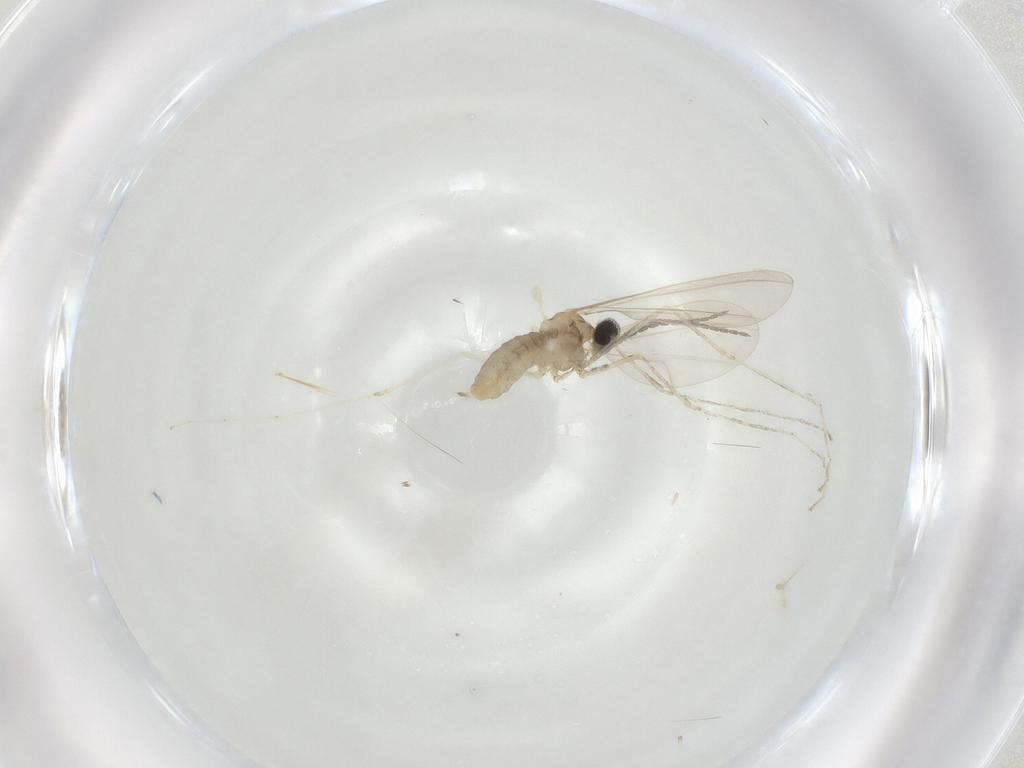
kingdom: Animalia
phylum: Arthropoda
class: Insecta
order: Diptera
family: Cecidomyiidae
